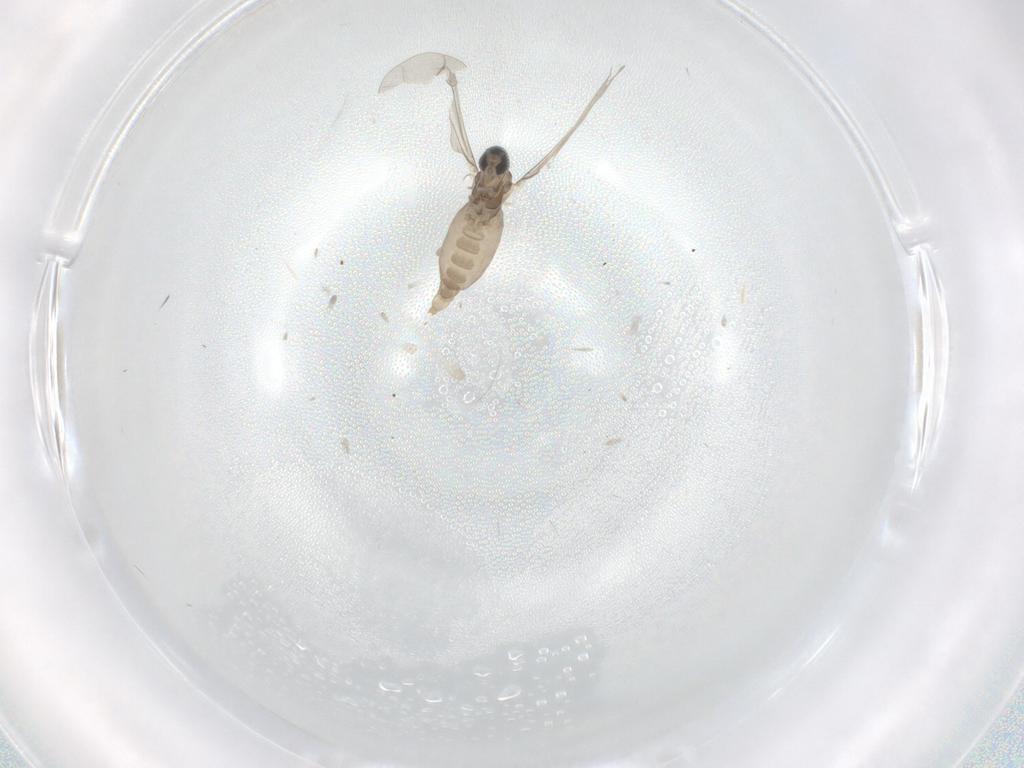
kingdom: Animalia
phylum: Arthropoda
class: Insecta
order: Diptera
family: Cecidomyiidae
